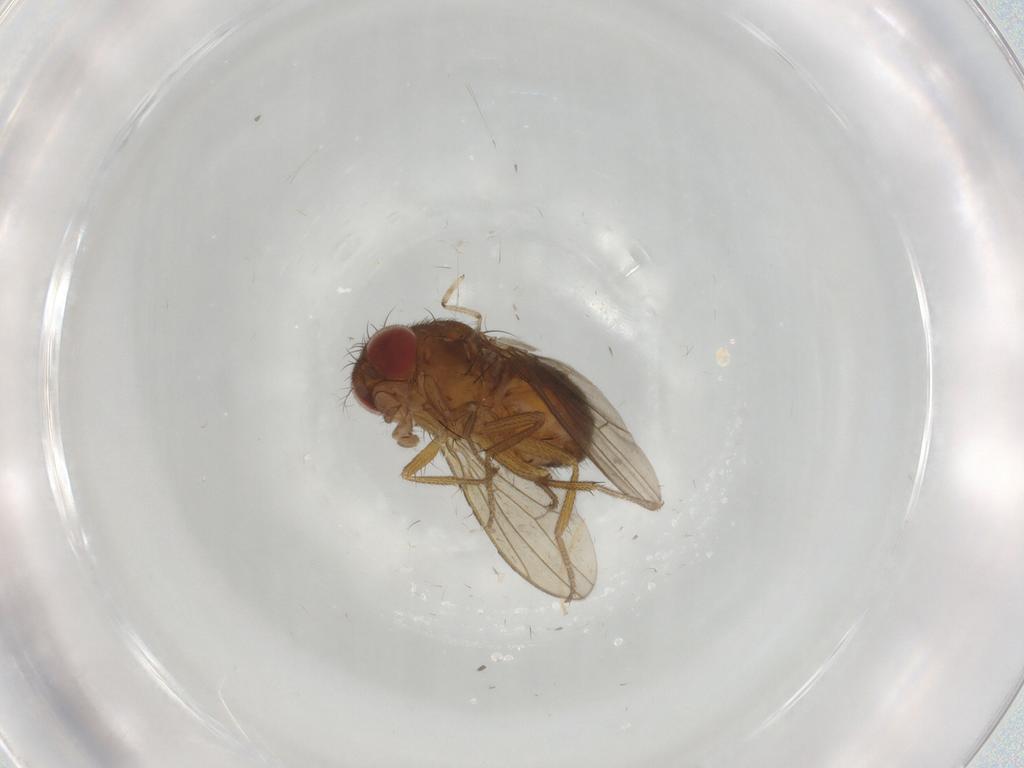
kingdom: Animalia
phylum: Arthropoda
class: Insecta
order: Diptera
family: Drosophilidae
